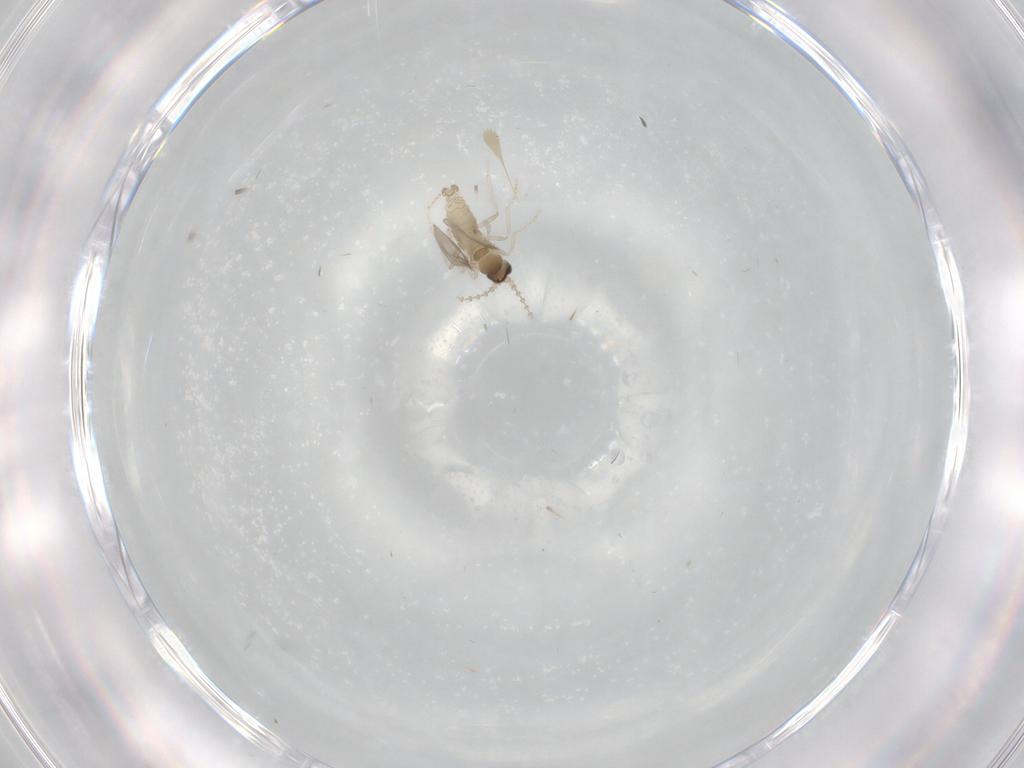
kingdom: Animalia
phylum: Arthropoda
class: Insecta
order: Diptera
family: Cecidomyiidae
